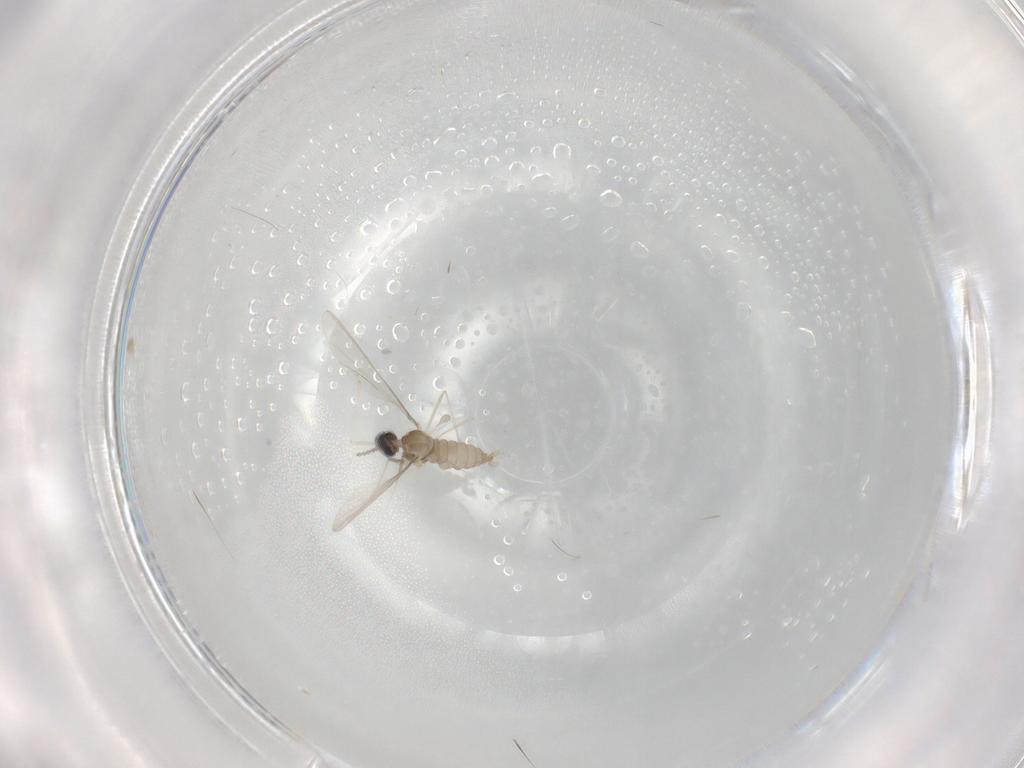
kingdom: Animalia
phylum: Arthropoda
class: Insecta
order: Diptera
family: Cecidomyiidae
